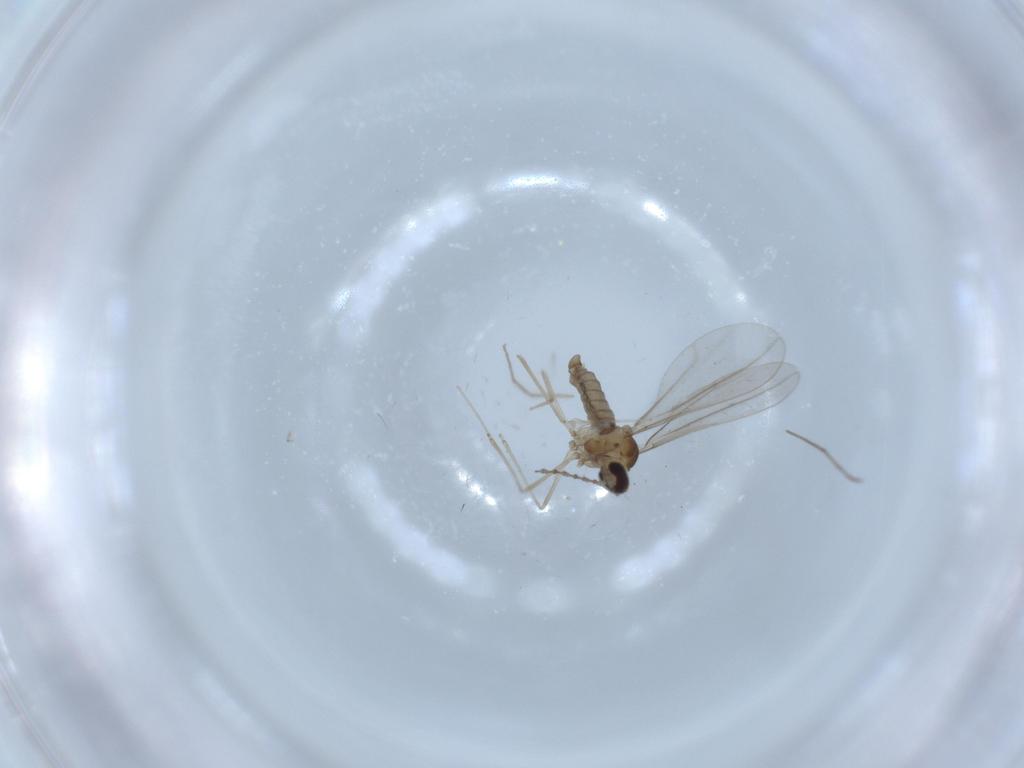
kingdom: Animalia
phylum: Arthropoda
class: Insecta
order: Diptera
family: Chironomidae
